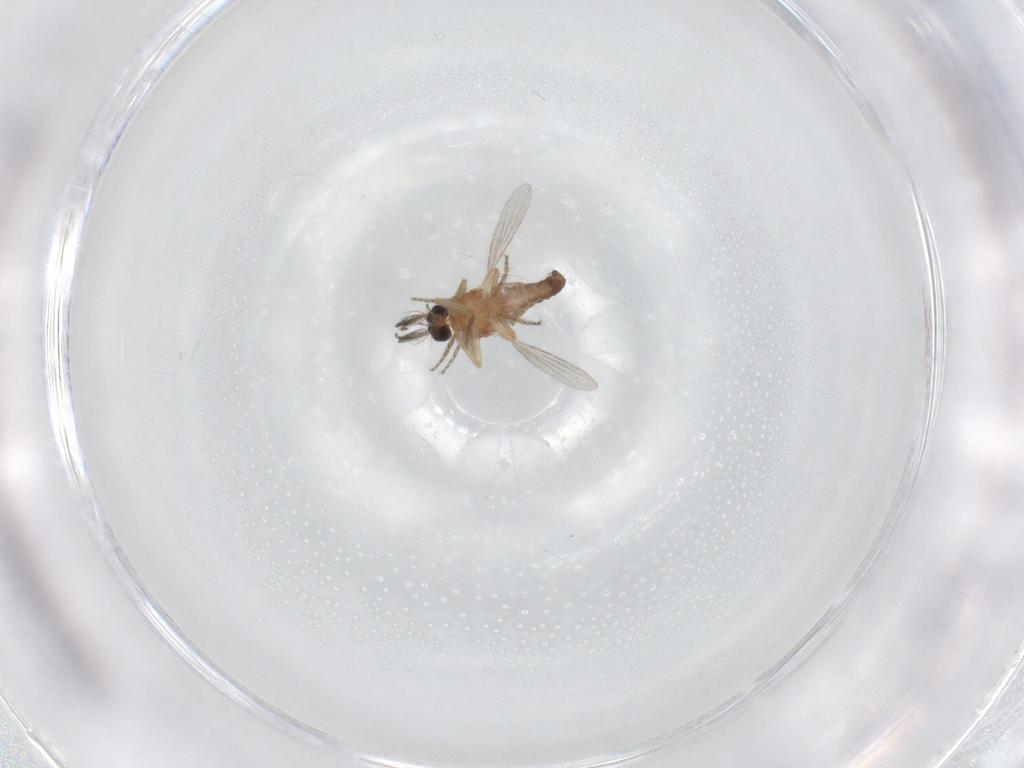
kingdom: Animalia
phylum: Arthropoda
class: Insecta
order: Diptera
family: Ceratopogonidae
